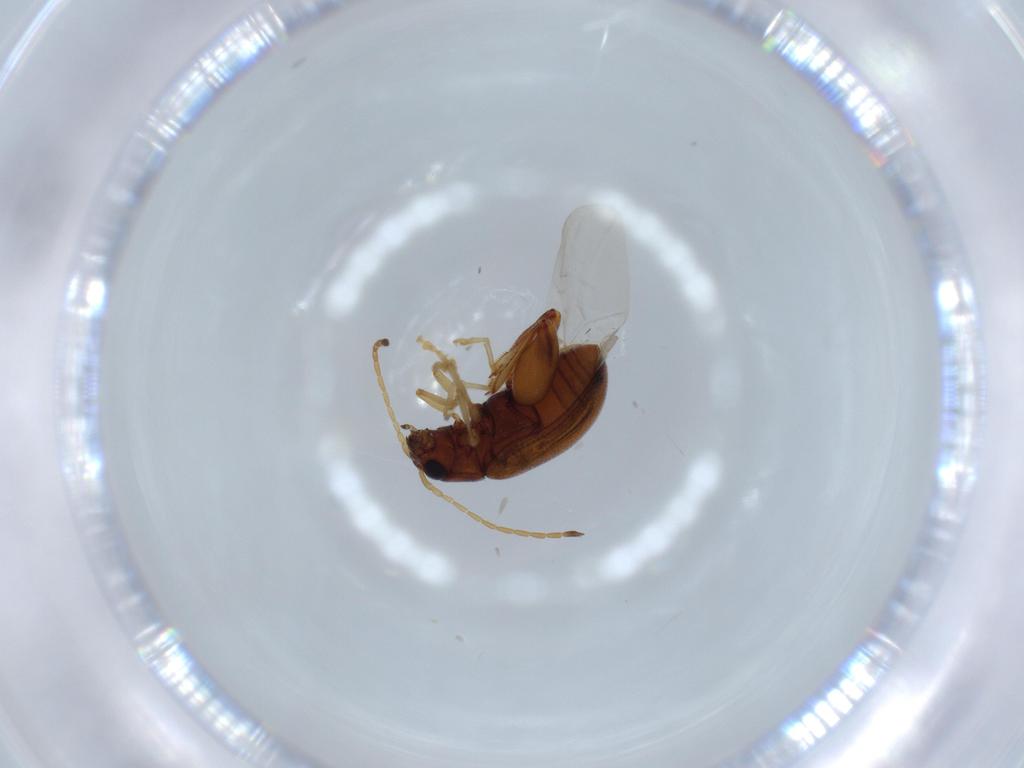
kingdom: Animalia
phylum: Arthropoda
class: Insecta
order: Coleoptera
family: Chrysomelidae
